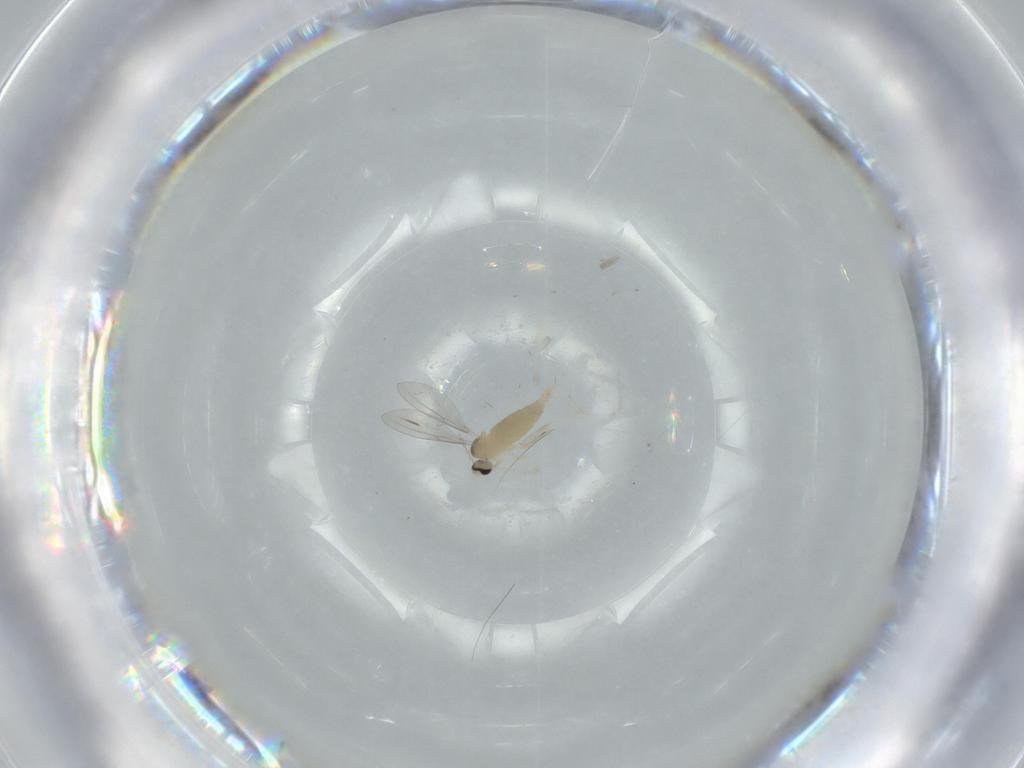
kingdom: Animalia
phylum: Arthropoda
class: Insecta
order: Diptera
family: Cecidomyiidae
